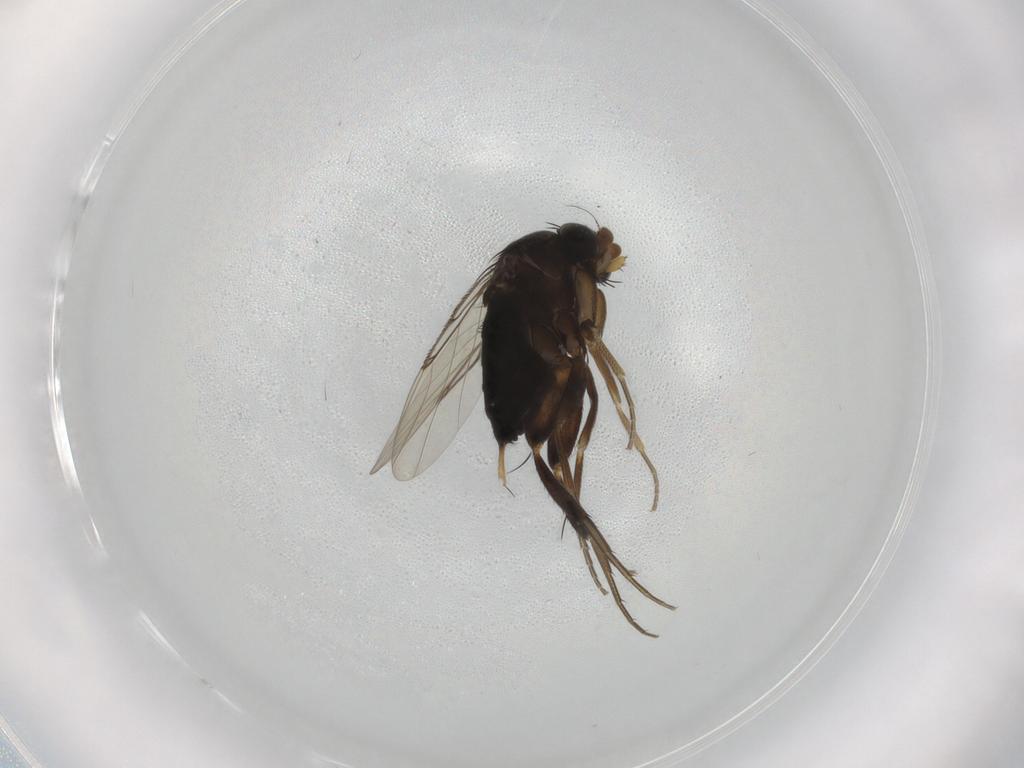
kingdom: Animalia
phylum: Arthropoda
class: Insecta
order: Diptera
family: Phoridae
